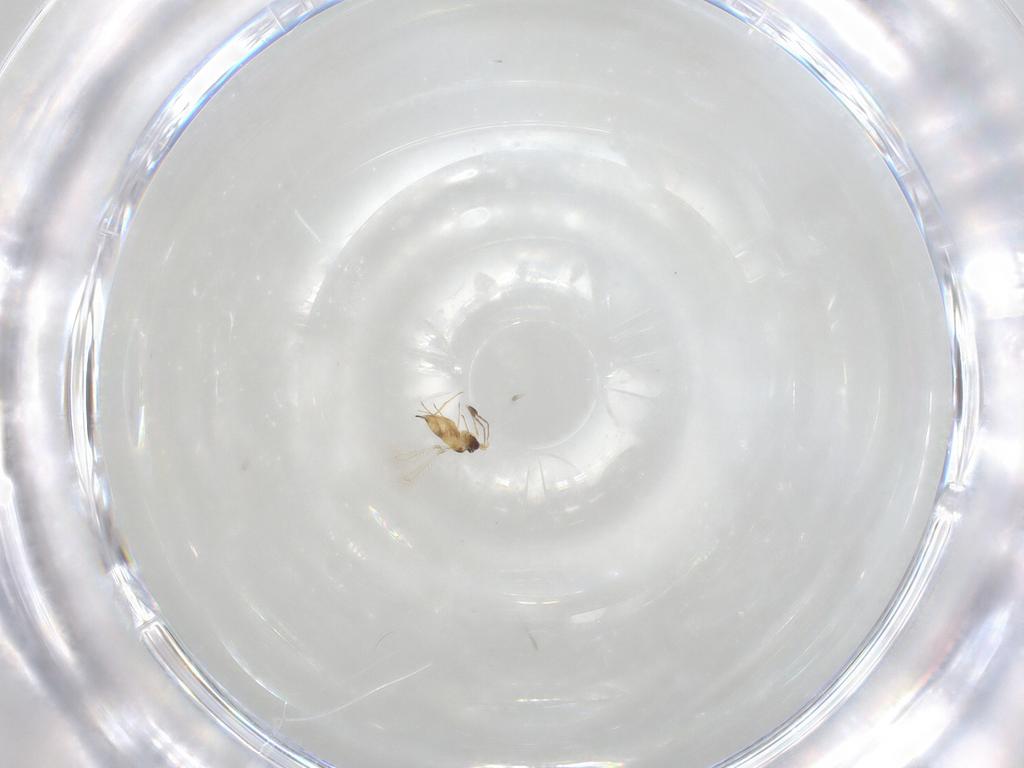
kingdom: Animalia
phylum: Arthropoda
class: Insecta
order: Hymenoptera
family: Mymaridae
